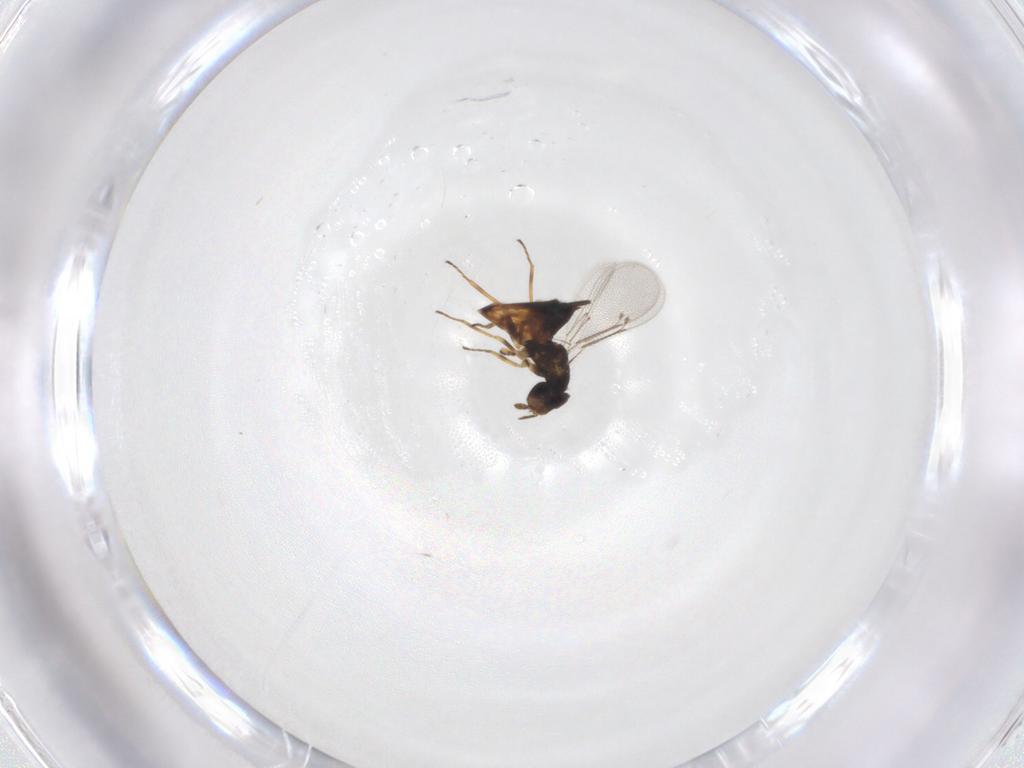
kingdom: Animalia
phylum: Arthropoda
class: Insecta
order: Hymenoptera
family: Eulophidae
